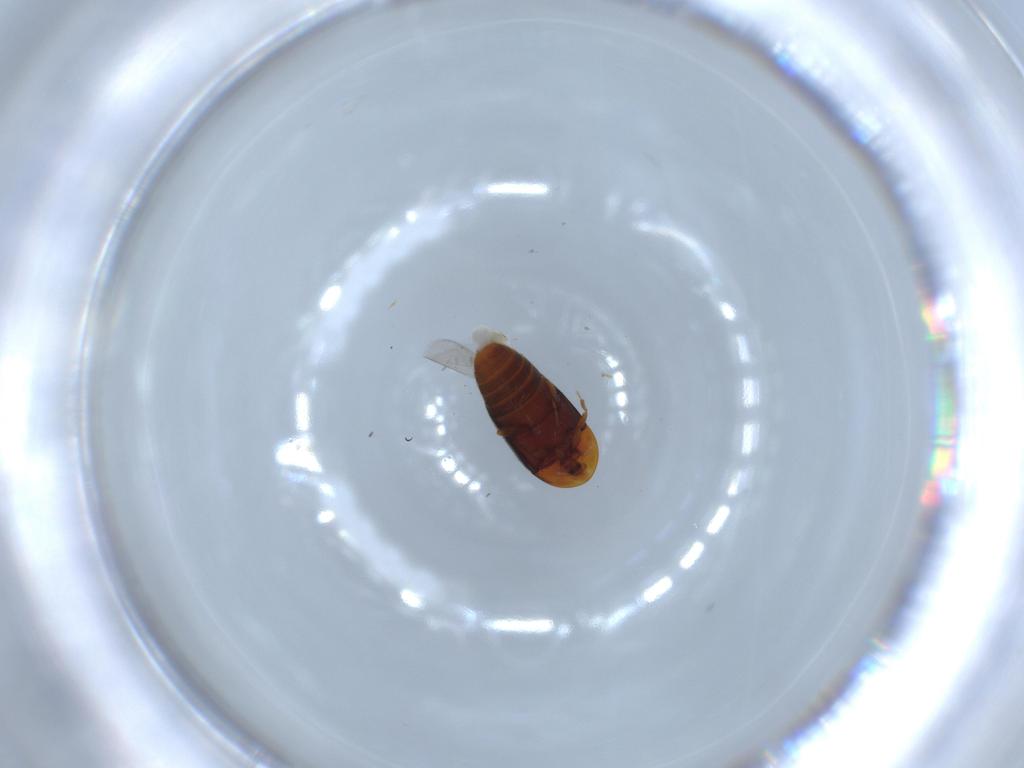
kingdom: Animalia
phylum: Arthropoda
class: Insecta
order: Coleoptera
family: Corylophidae
